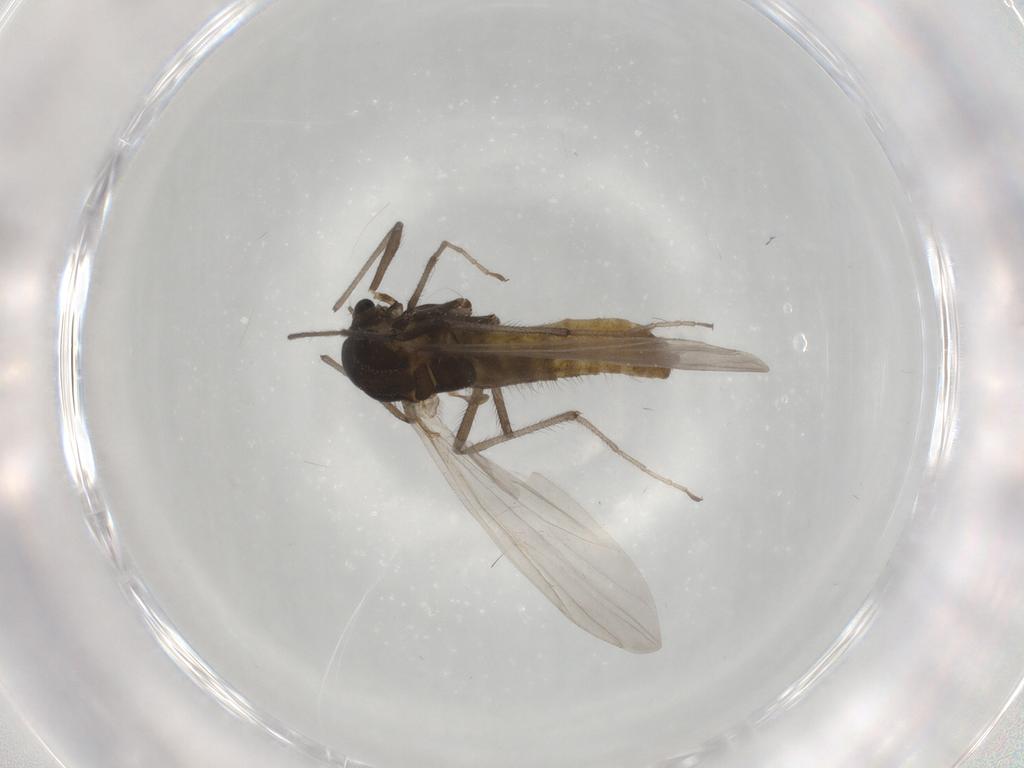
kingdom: Animalia
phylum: Arthropoda
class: Insecta
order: Diptera
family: Chironomidae
